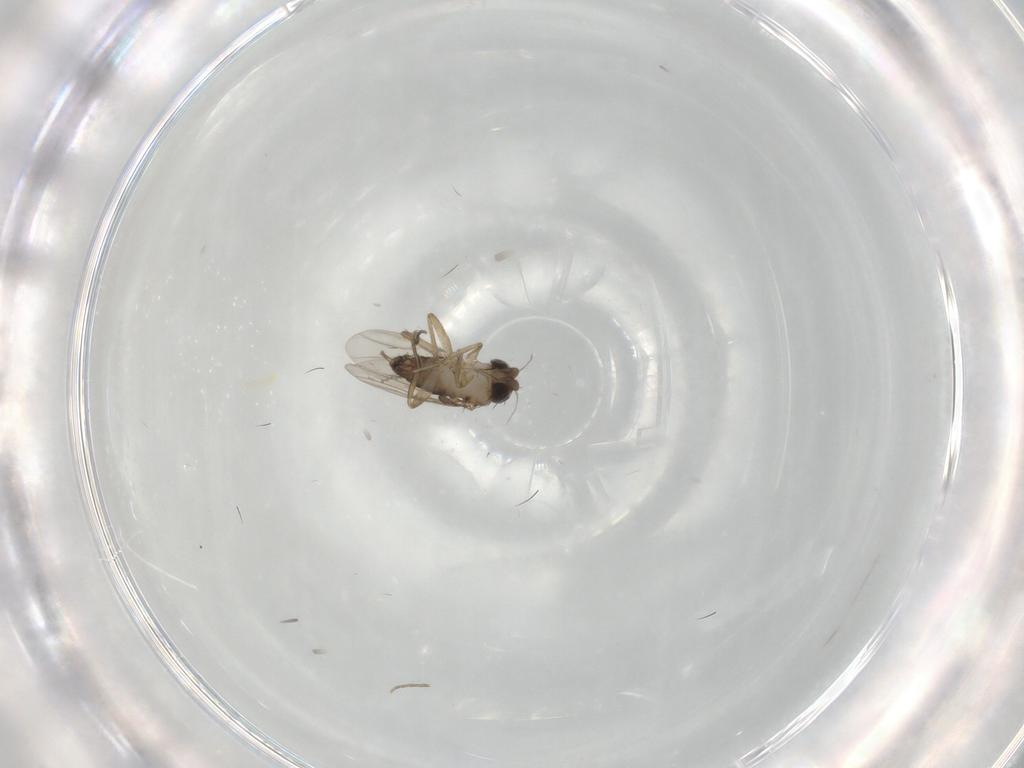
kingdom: Animalia
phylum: Arthropoda
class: Insecta
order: Diptera
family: Phoridae
